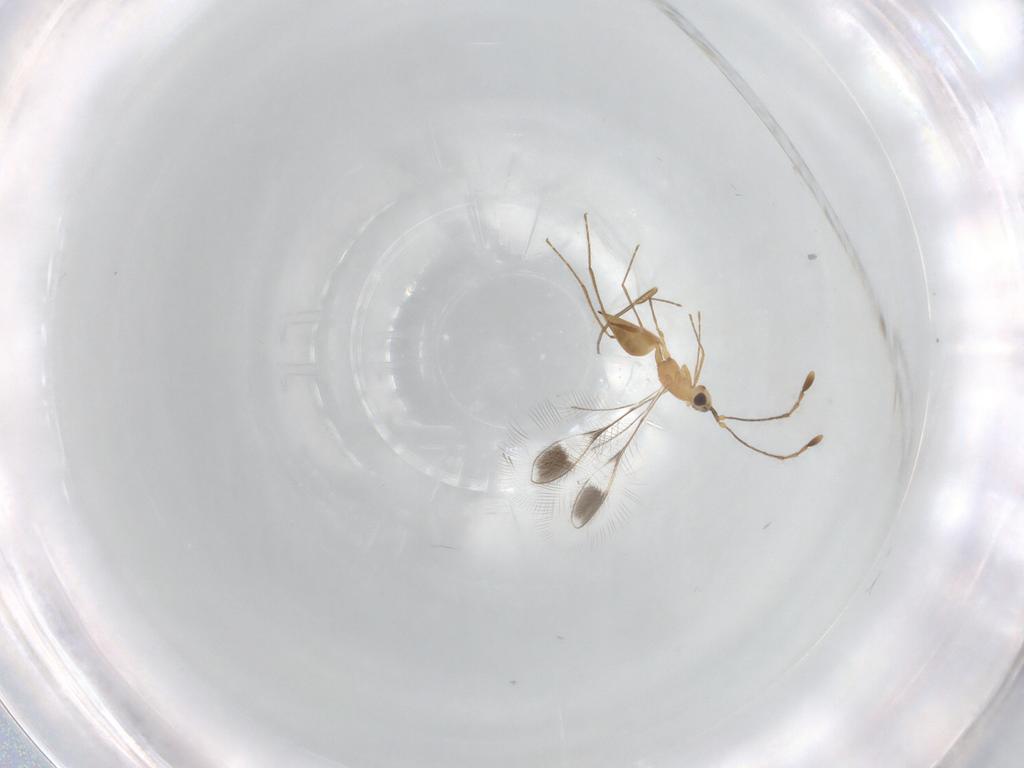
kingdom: Animalia
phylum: Arthropoda
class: Insecta
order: Hymenoptera
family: Mymaridae
